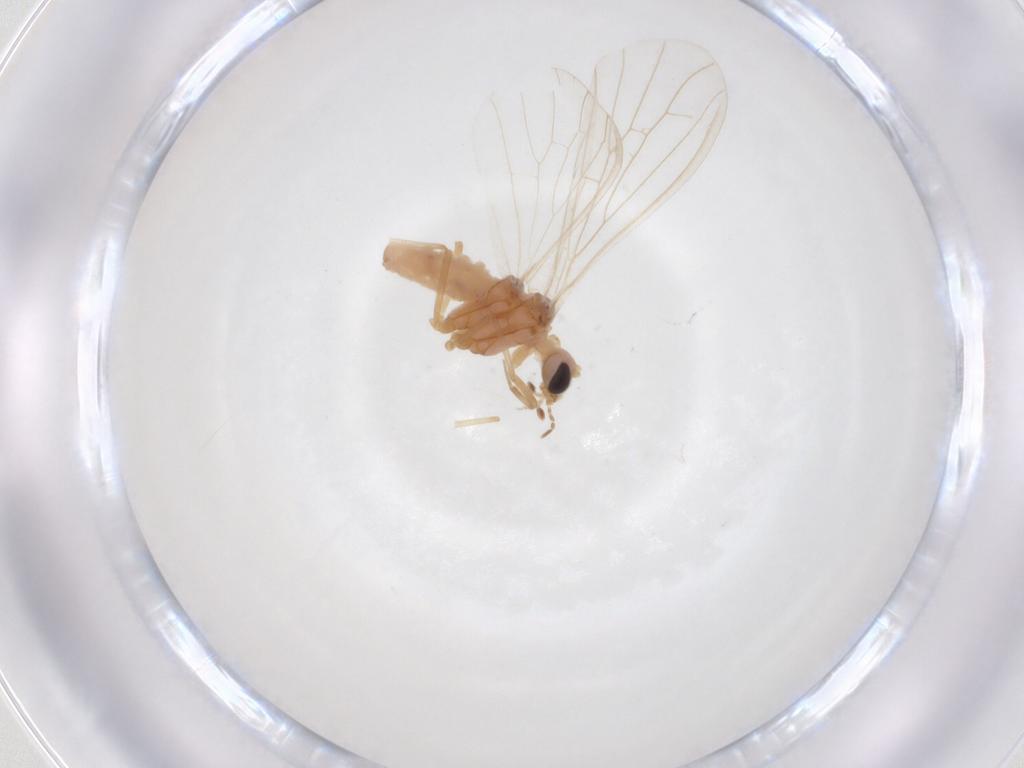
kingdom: Animalia
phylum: Arthropoda
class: Insecta
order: Neuroptera
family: Coniopterygidae
